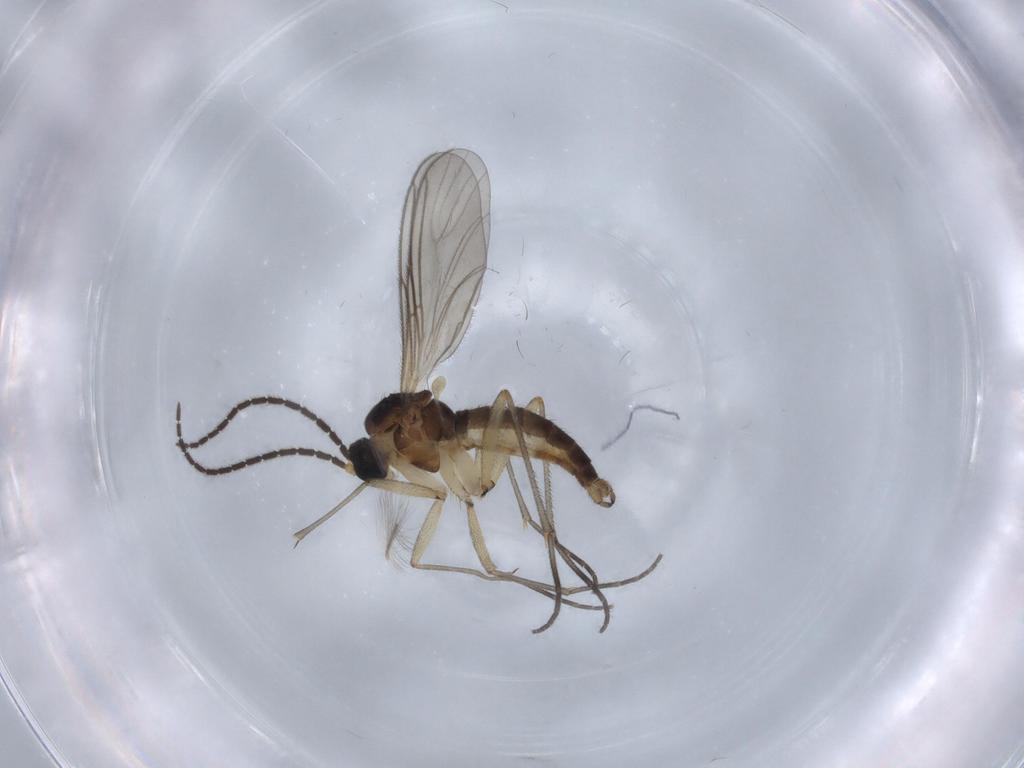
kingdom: Animalia
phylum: Arthropoda
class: Insecta
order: Diptera
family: Sciaridae
